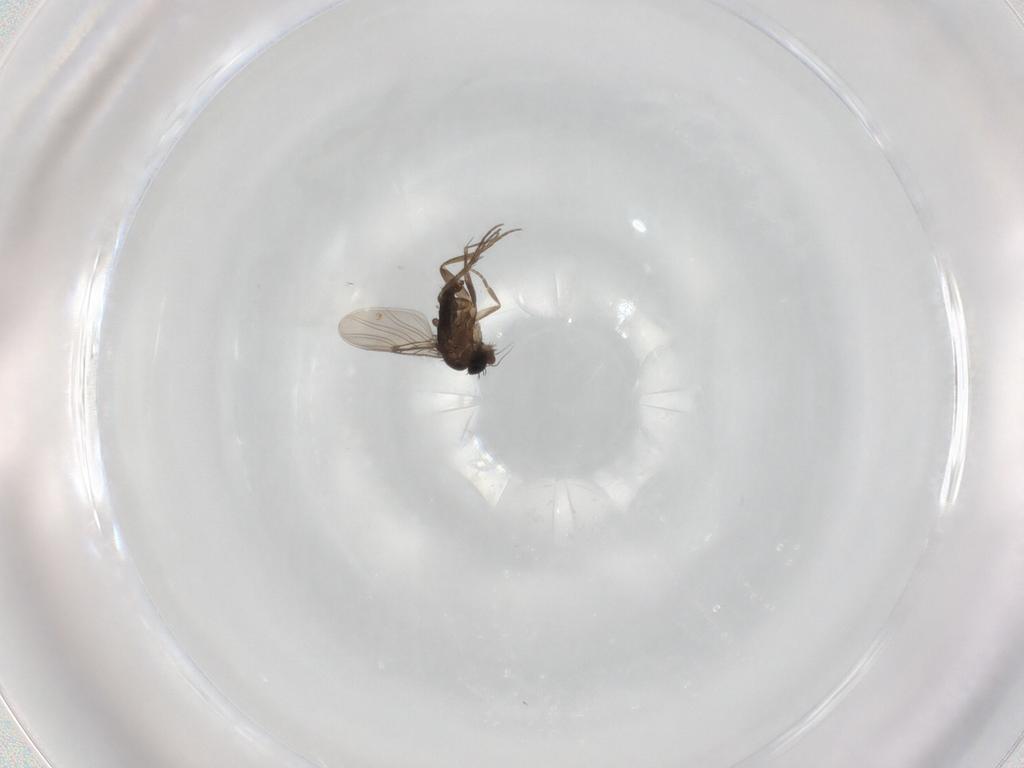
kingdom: Animalia
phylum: Arthropoda
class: Insecta
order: Diptera
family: Phoridae
